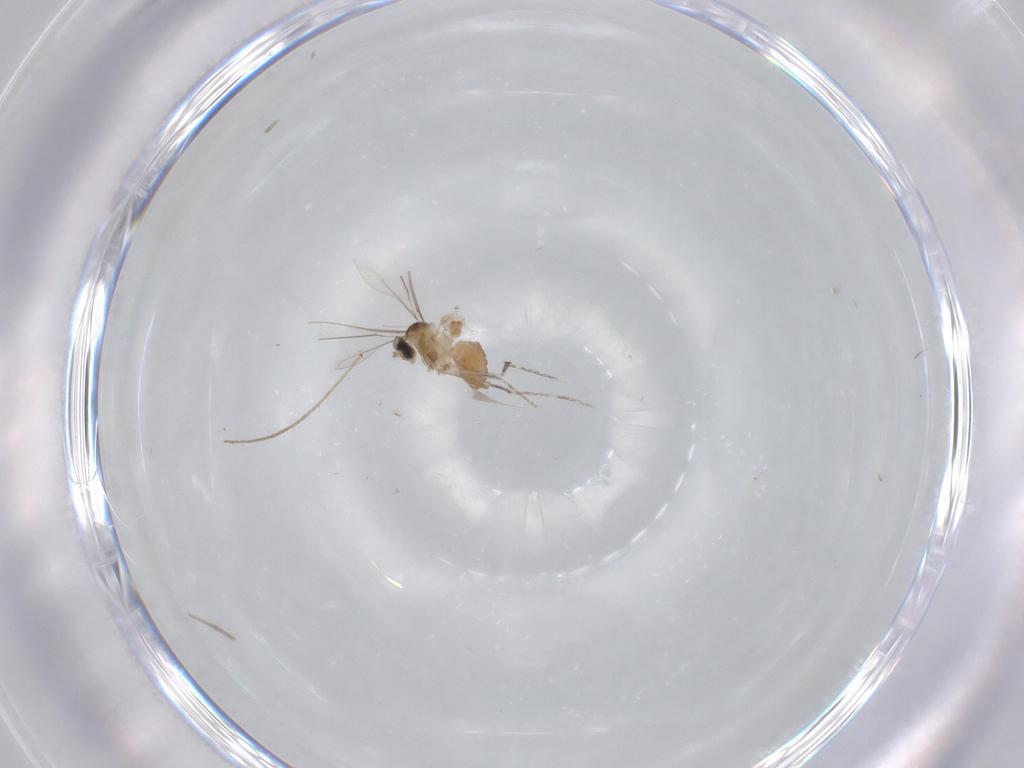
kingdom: Animalia
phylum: Arthropoda
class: Insecta
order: Diptera
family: Cecidomyiidae
